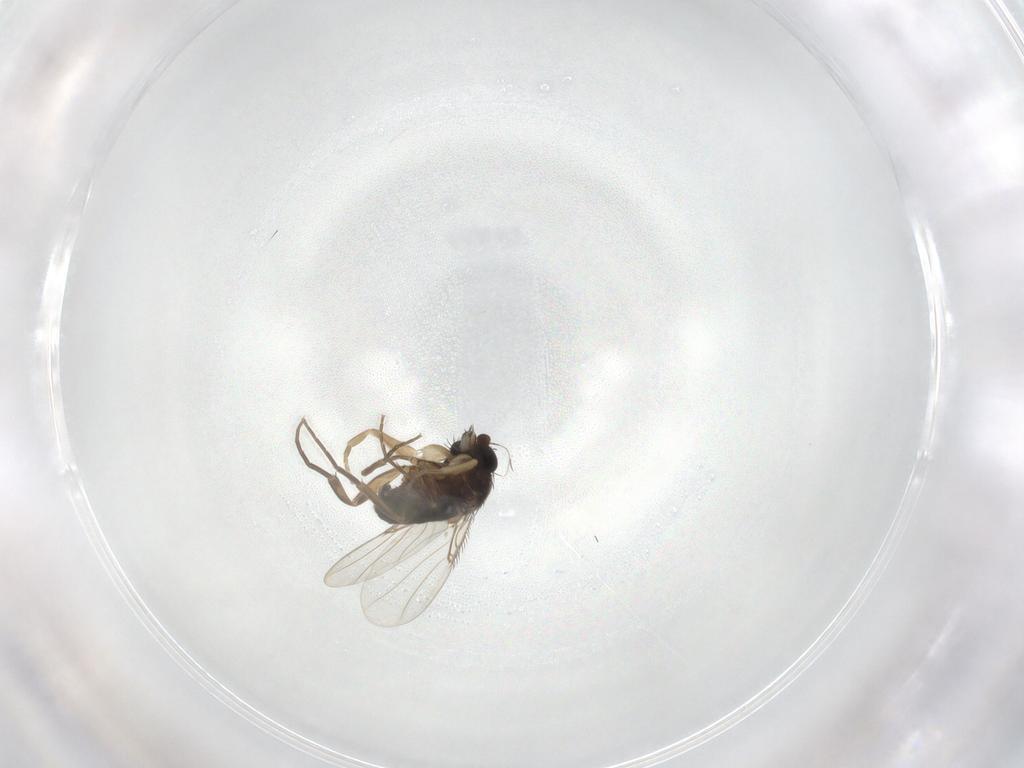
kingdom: Animalia
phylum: Arthropoda
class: Insecta
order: Diptera
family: Phoridae
